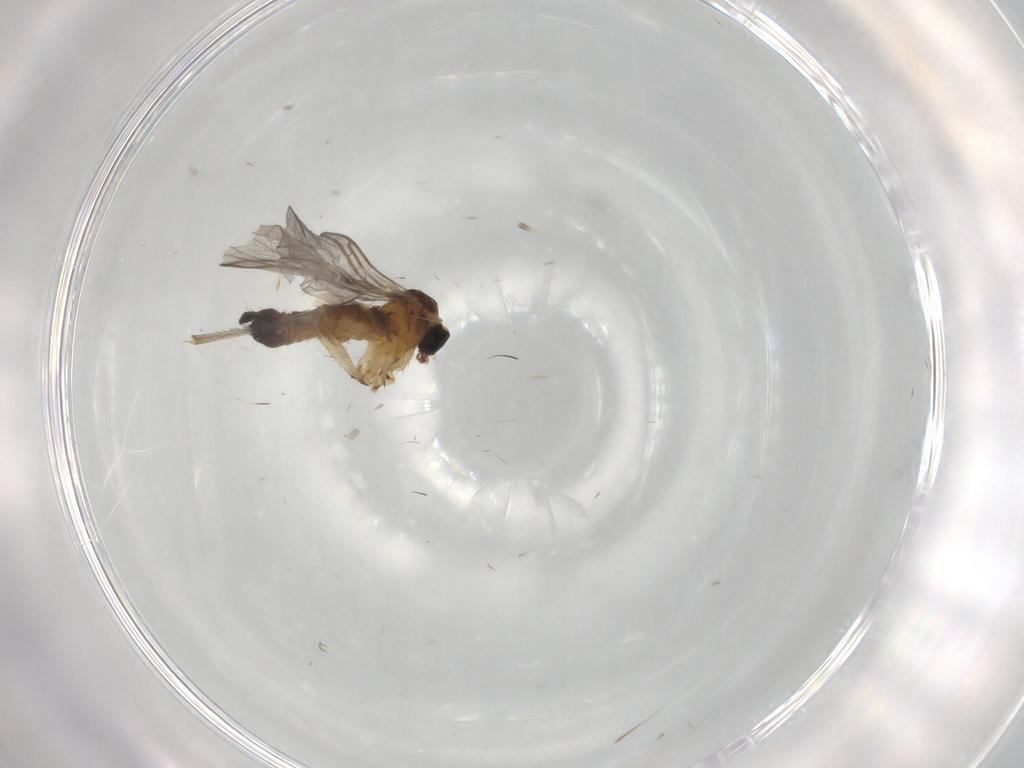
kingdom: Animalia
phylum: Arthropoda
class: Insecta
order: Diptera
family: Sciaridae
